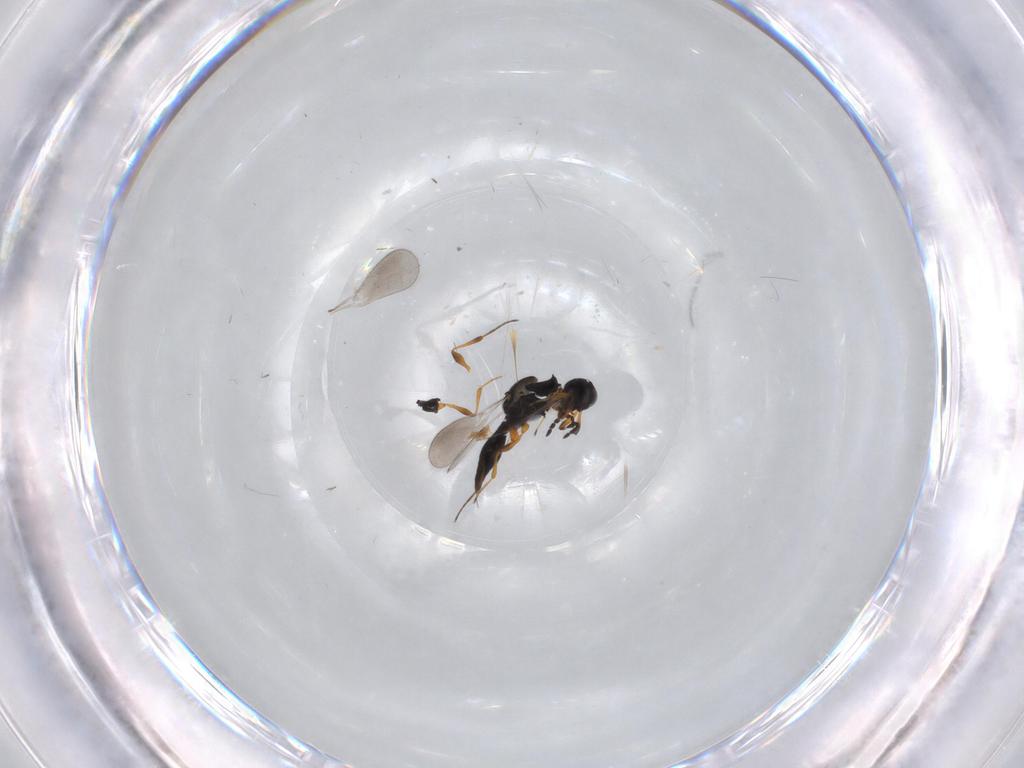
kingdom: Animalia
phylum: Arthropoda
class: Insecta
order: Hymenoptera
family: Platygastridae
